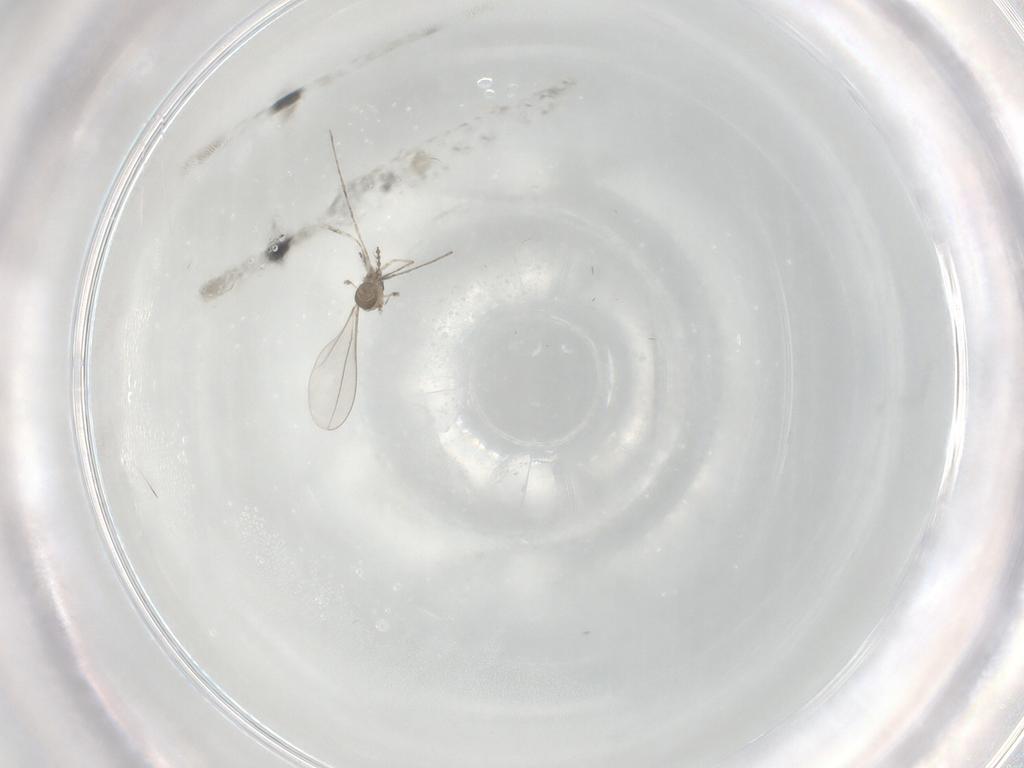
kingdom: Animalia
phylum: Arthropoda
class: Insecta
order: Diptera
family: Cecidomyiidae
